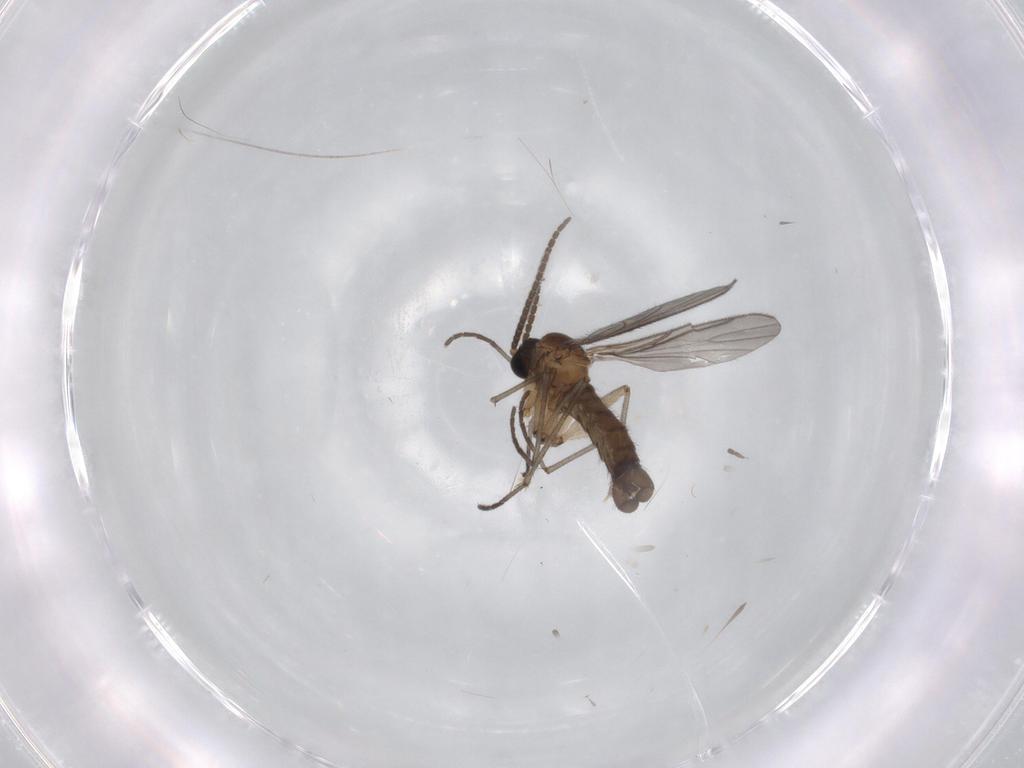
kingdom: Animalia
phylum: Arthropoda
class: Insecta
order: Diptera
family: Sciaridae
